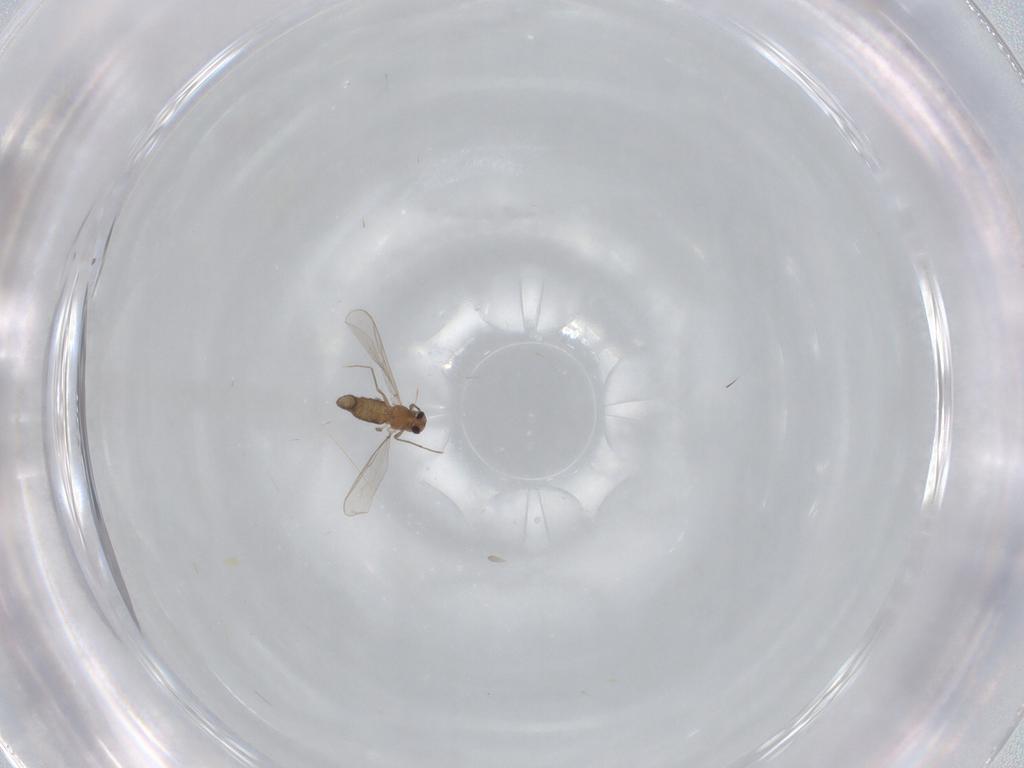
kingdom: Animalia
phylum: Arthropoda
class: Insecta
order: Diptera
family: Chironomidae
